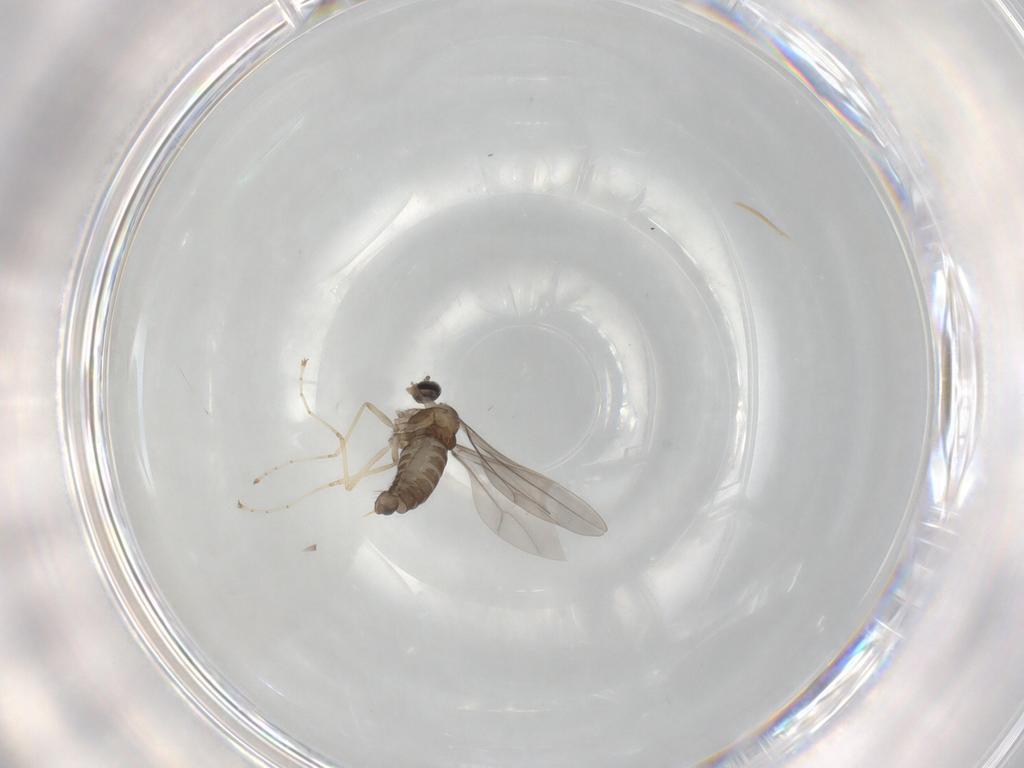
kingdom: Animalia
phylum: Arthropoda
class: Insecta
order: Diptera
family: Cecidomyiidae
